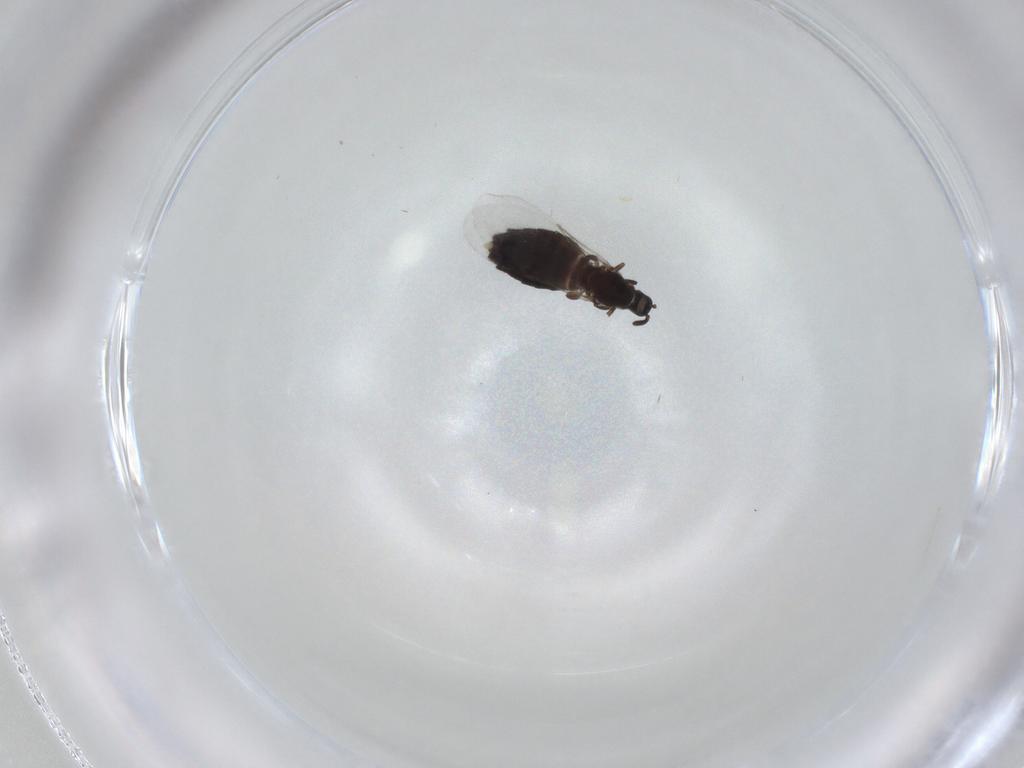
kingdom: Animalia
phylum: Arthropoda
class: Insecta
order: Diptera
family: Scatopsidae
